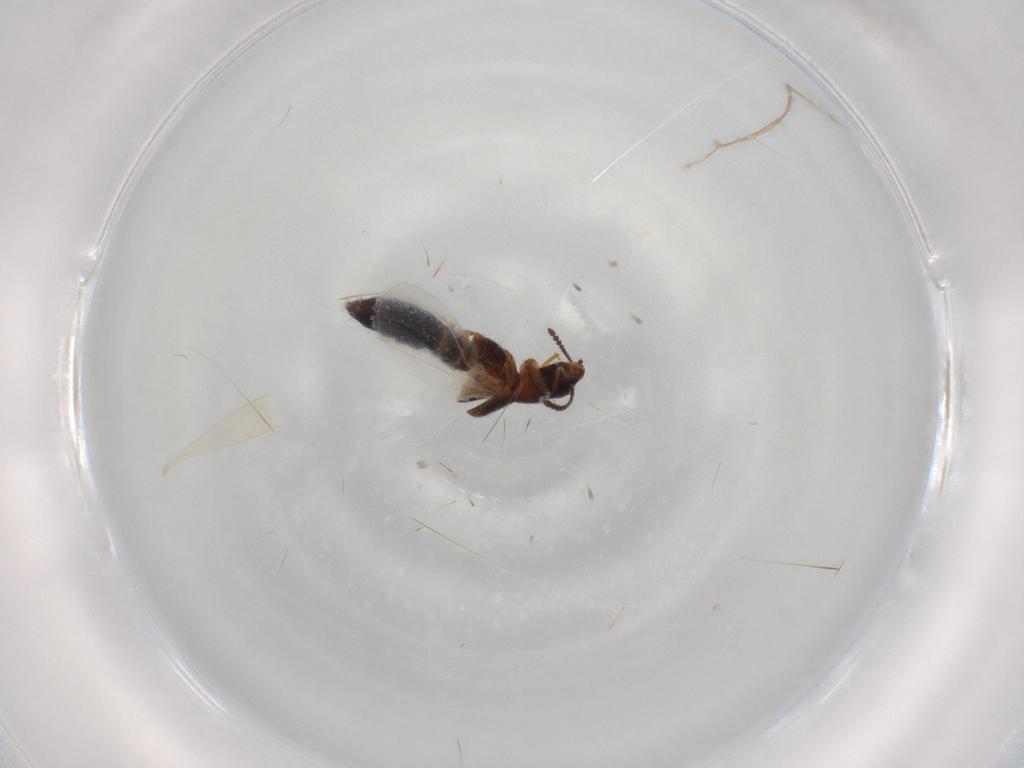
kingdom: Animalia
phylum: Arthropoda
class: Insecta
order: Coleoptera
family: Staphylinidae
